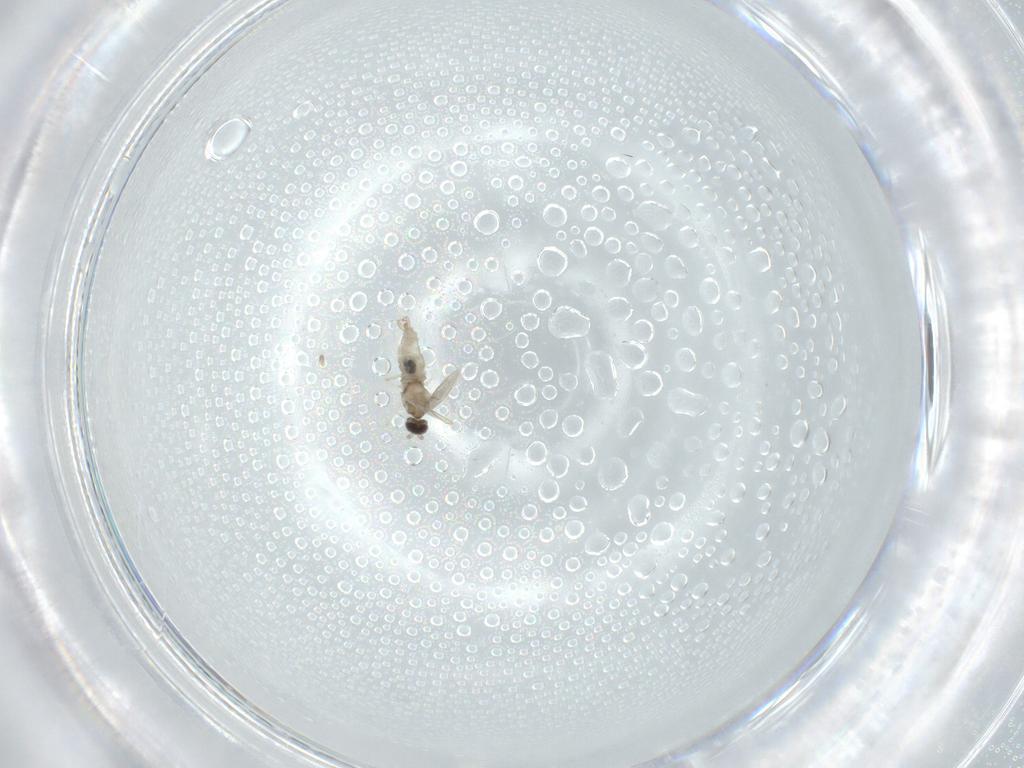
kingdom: Animalia
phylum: Arthropoda
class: Insecta
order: Diptera
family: Cecidomyiidae
